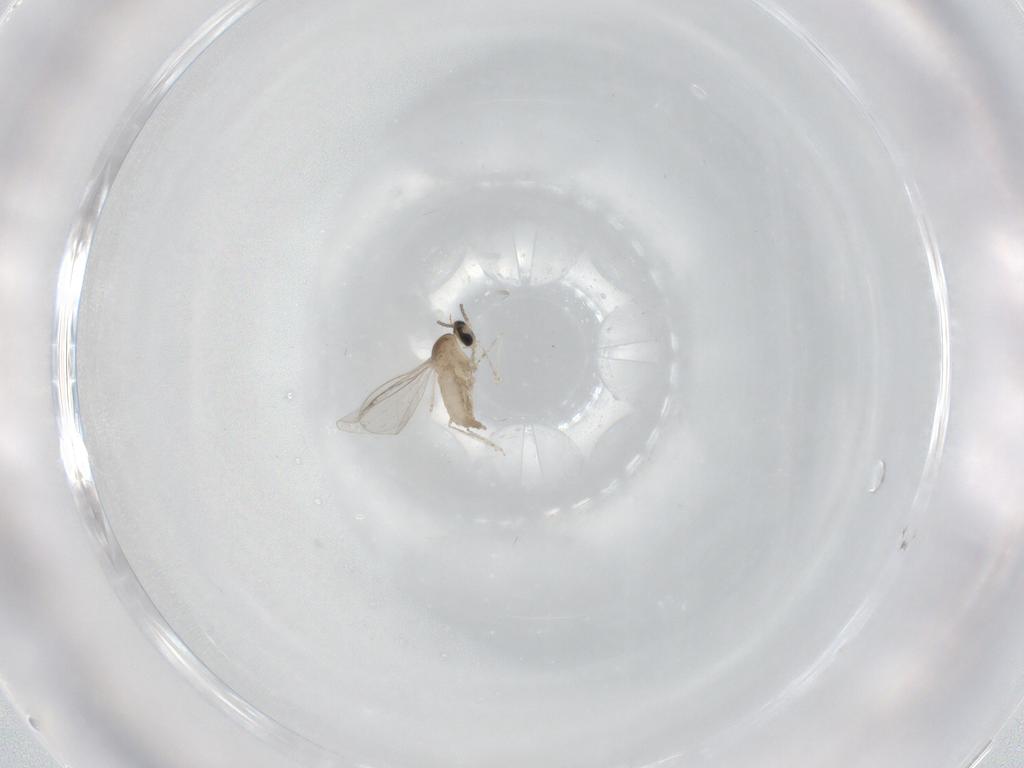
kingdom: Animalia
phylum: Arthropoda
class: Insecta
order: Diptera
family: Cecidomyiidae
